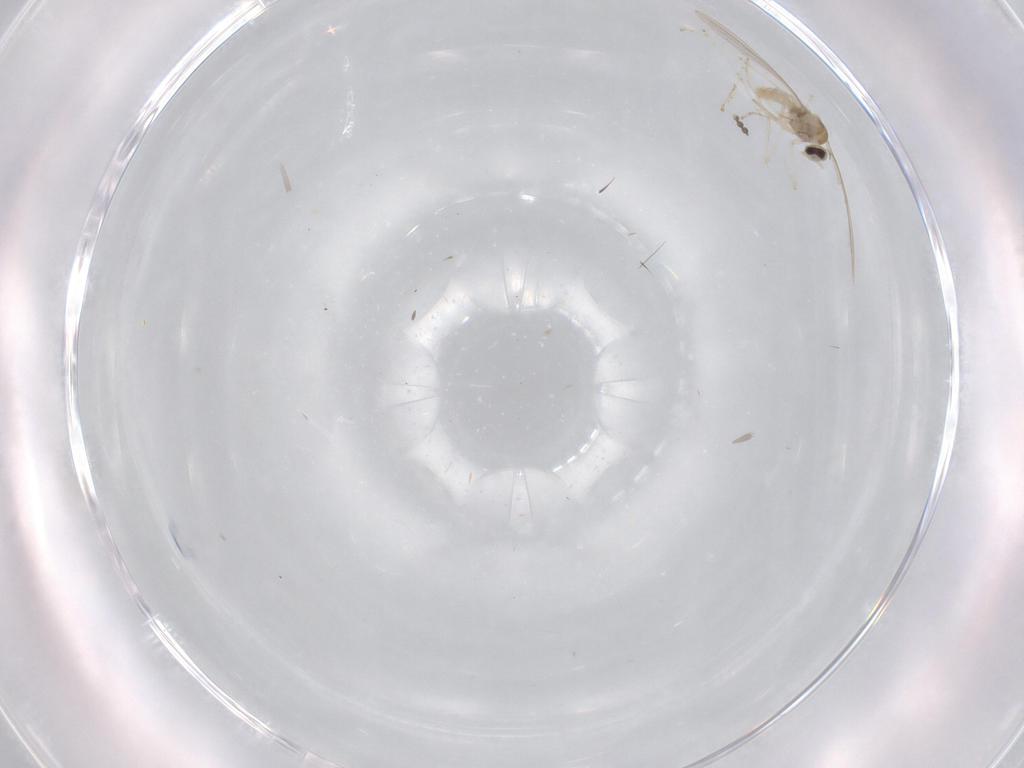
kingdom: Animalia
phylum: Arthropoda
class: Insecta
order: Diptera
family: Cecidomyiidae
